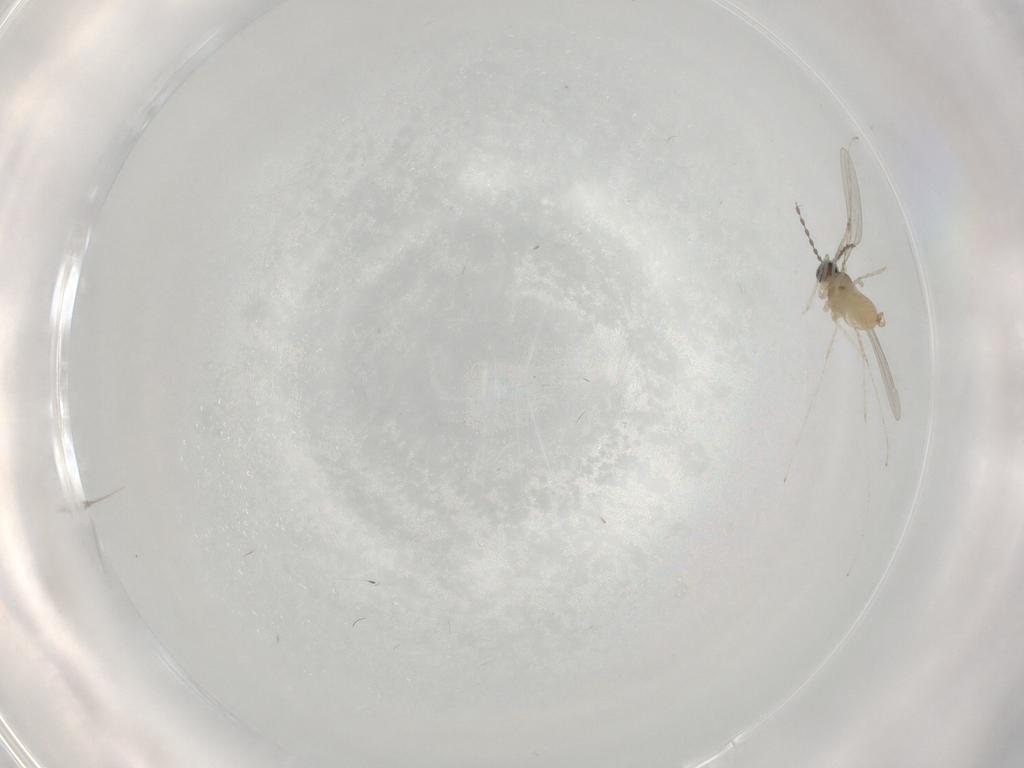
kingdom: Animalia
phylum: Arthropoda
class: Insecta
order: Diptera
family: Cecidomyiidae
